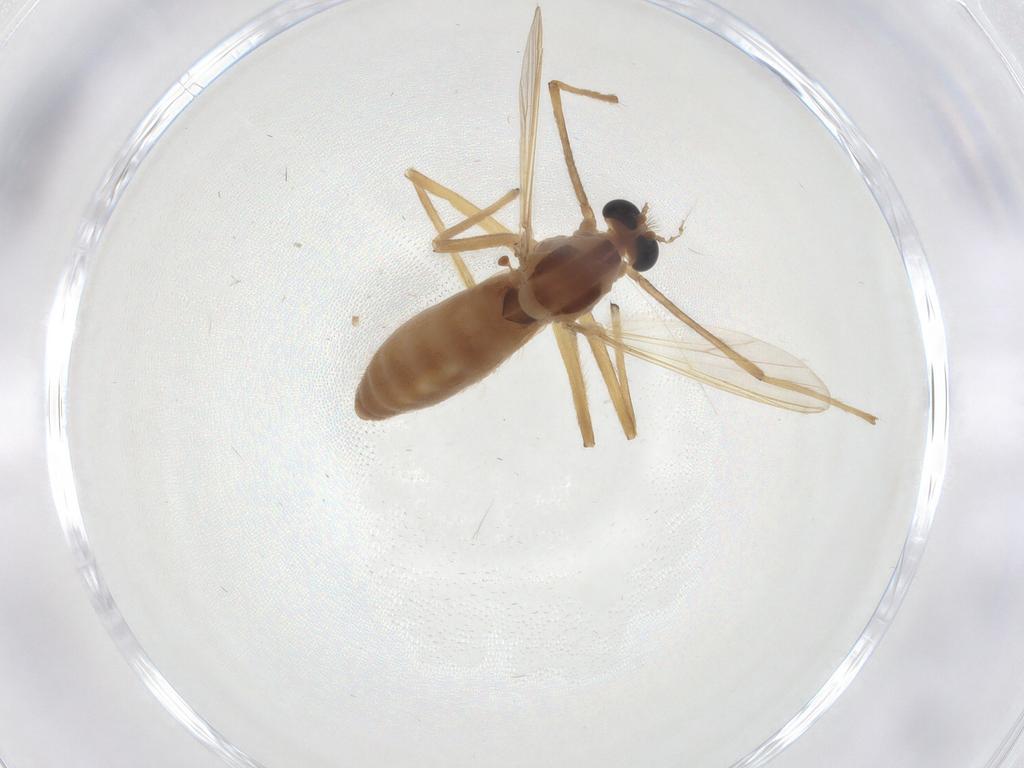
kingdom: Animalia
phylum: Arthropoda
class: Insecta
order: Diptera
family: Chironomidae
